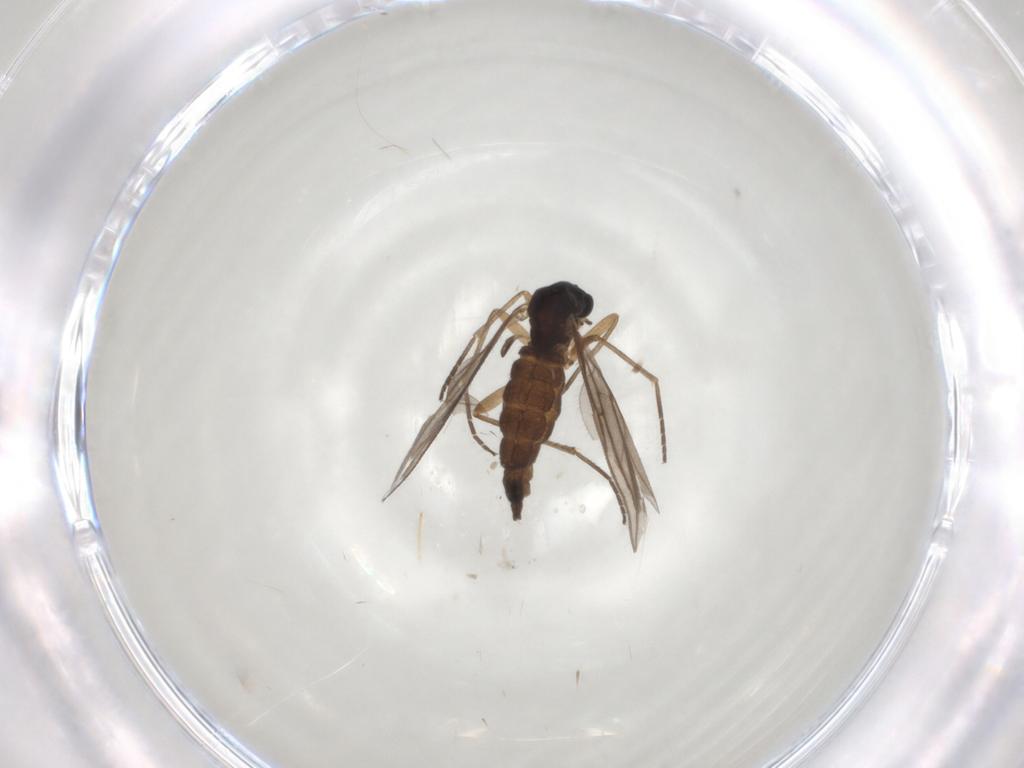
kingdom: Animalia
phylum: Arthropoda
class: Insecta
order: Diptera
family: Sciaridae
